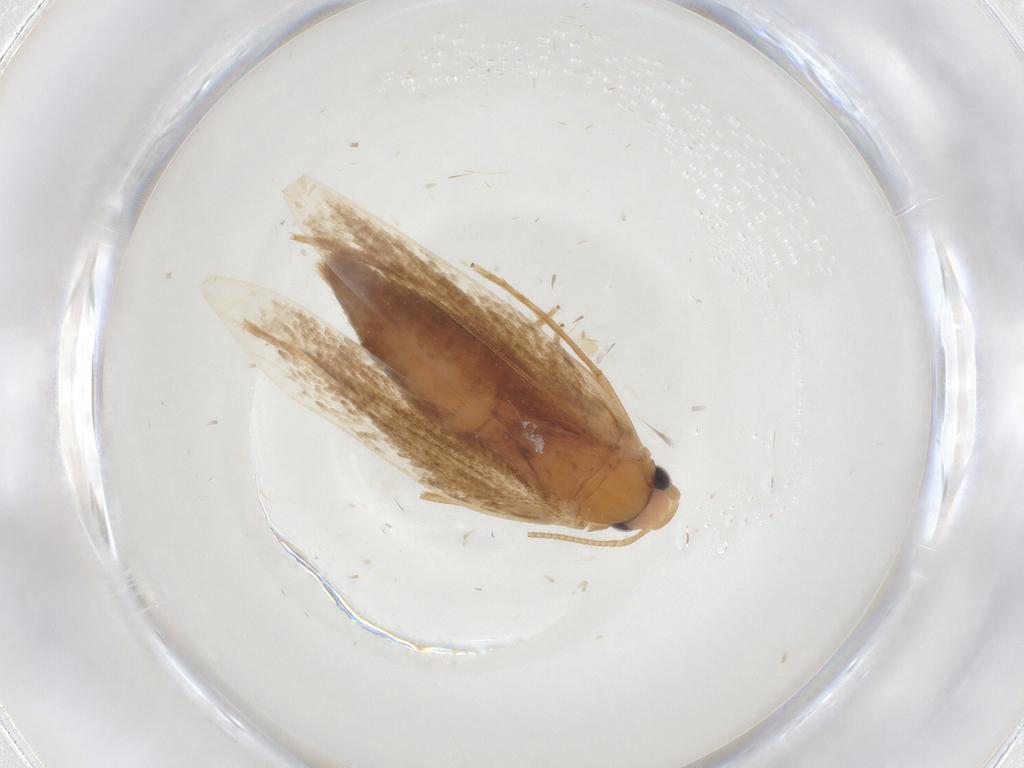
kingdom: Animalia
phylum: Arthropoda
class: Insecta
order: Lepidoptera
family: Tineidae
